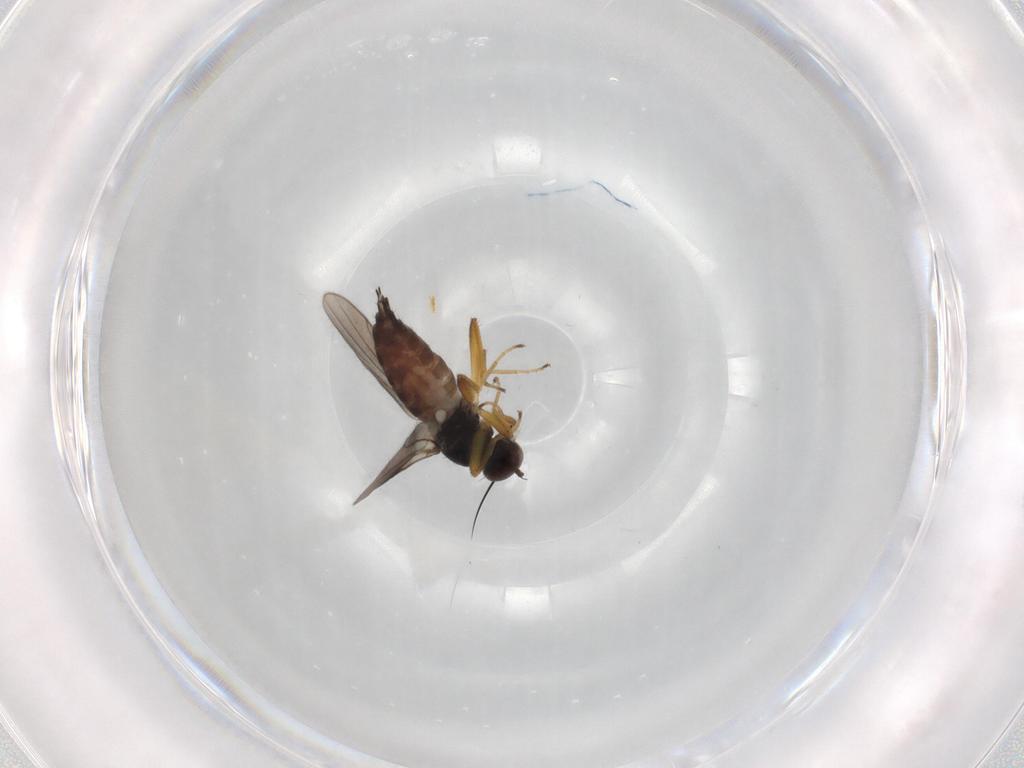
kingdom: Animalia
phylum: Arthropoda
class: Insecta
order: Diptera
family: Hybotidae
